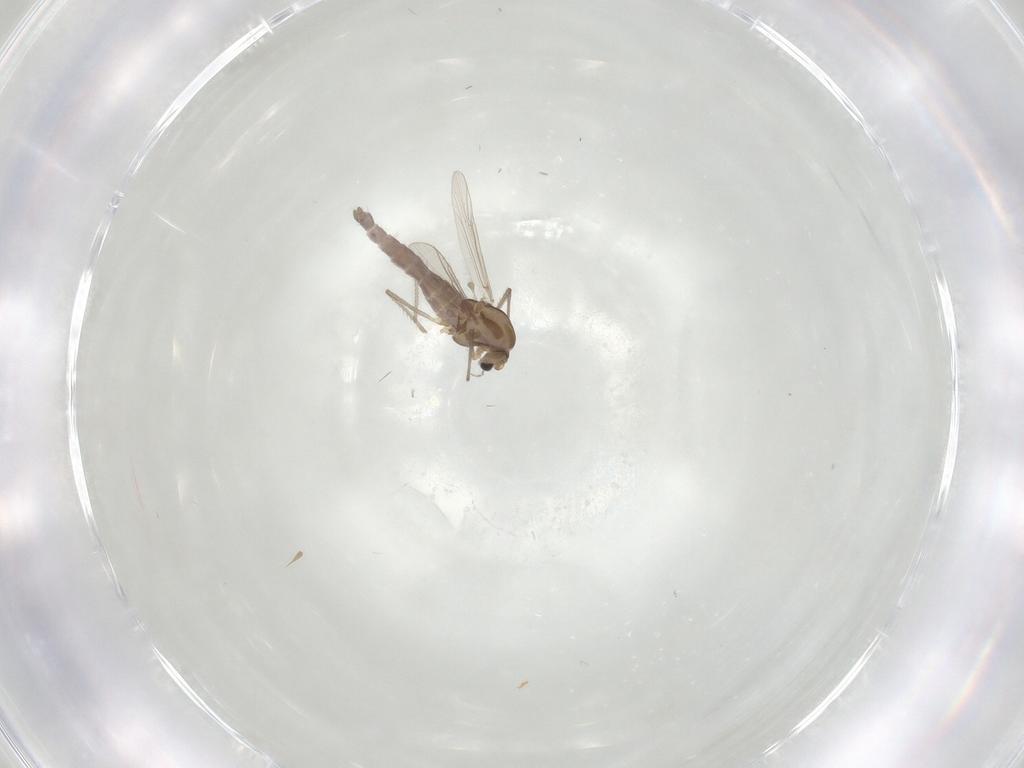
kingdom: Animalia
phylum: Arthropoda
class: Insecta
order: Diptera
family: Chironomidae
